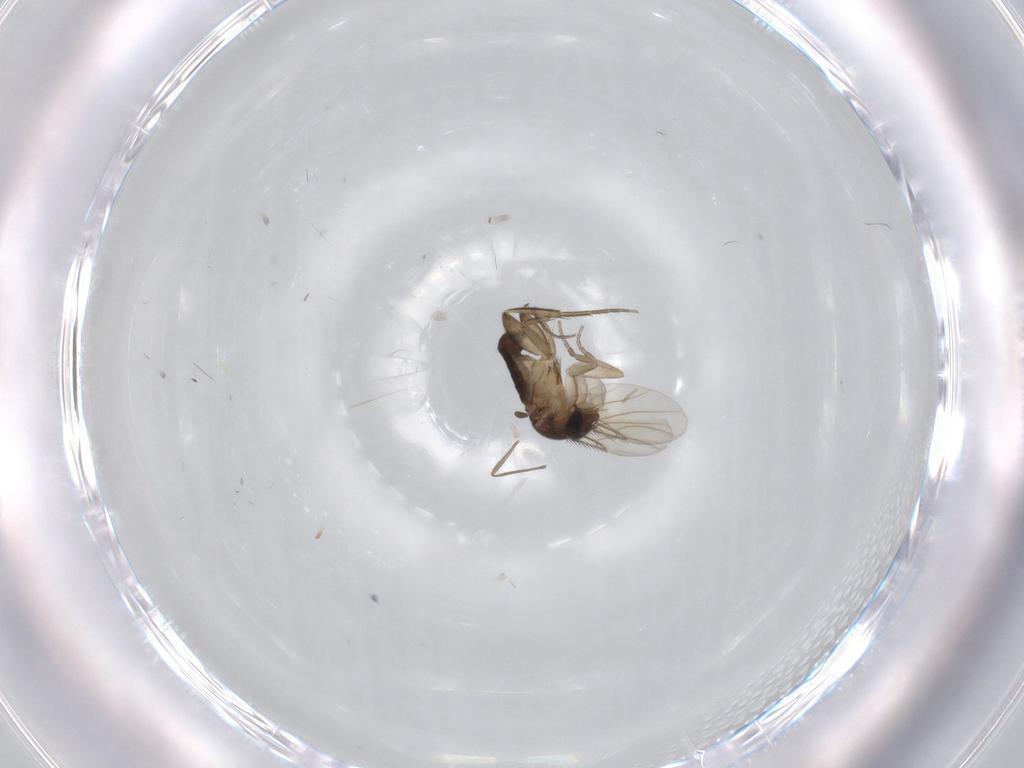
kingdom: Animalia
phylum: Arthropoda
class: Insecta
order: Diptera
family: Phoridae
